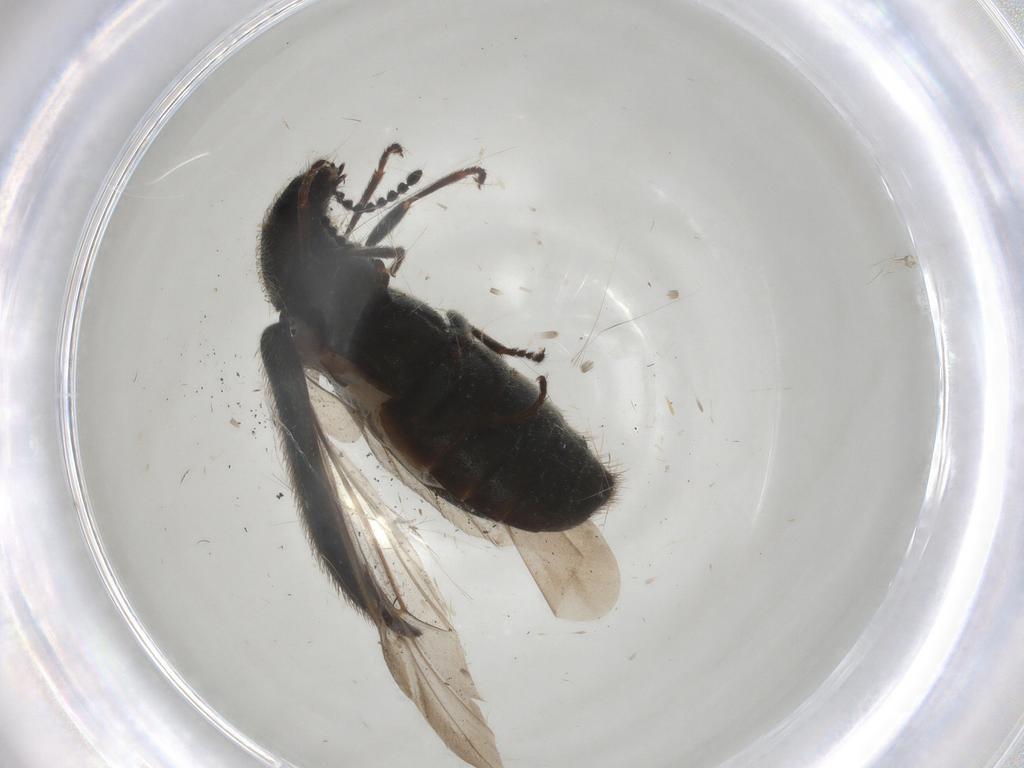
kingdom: Animalia
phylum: Arthropoda
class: Insecta
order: Coleoptera
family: Melyridae
